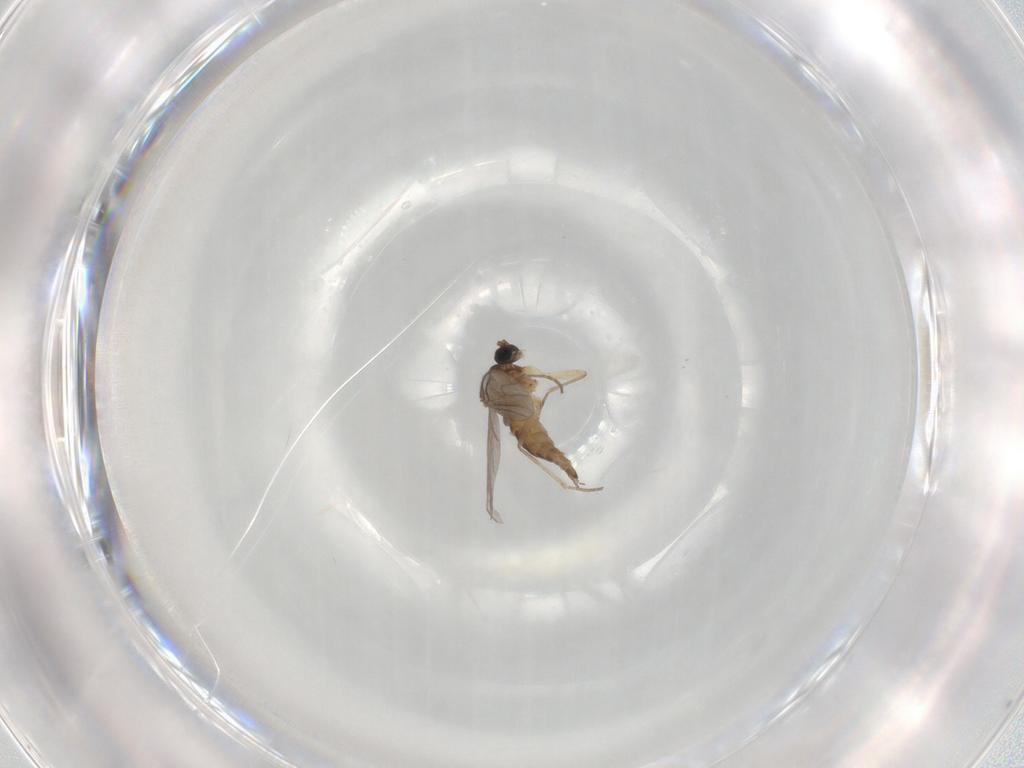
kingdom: Animalia
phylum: Arthropoda
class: Insecta
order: Diptera
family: Sciaridae
